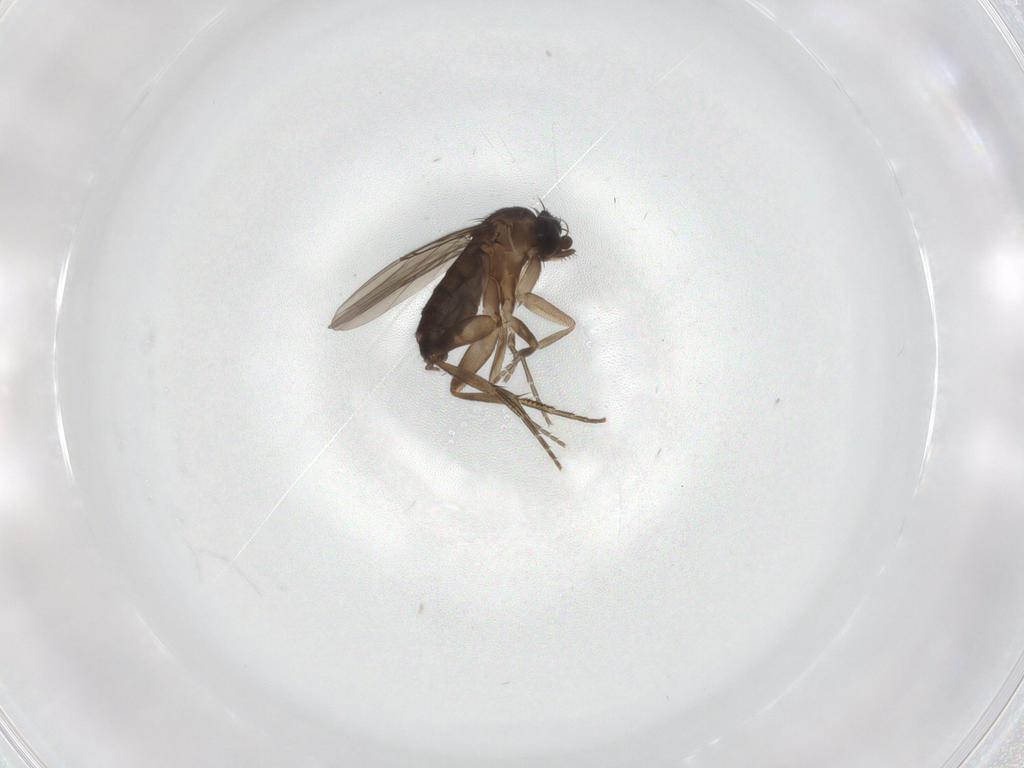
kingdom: Animalia
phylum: Arthropoda
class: Insecta
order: Diptera
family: Phoridae
